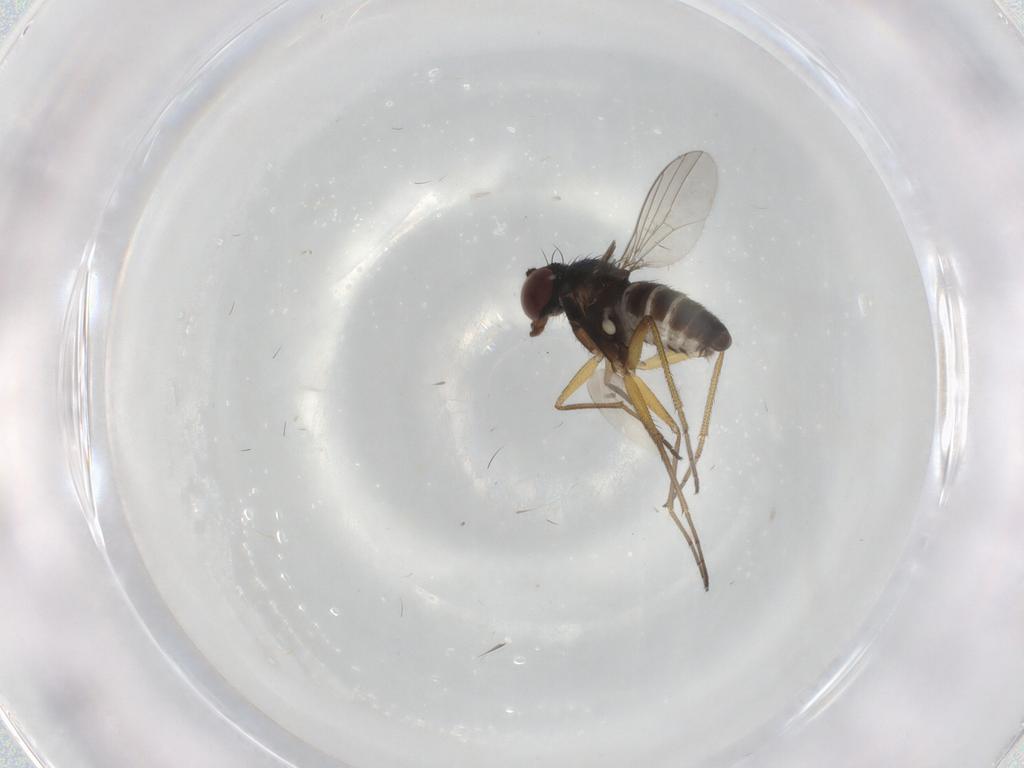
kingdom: Animalia
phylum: Arthropoda
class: Insecta
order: Diptera
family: Dolichopodidae
